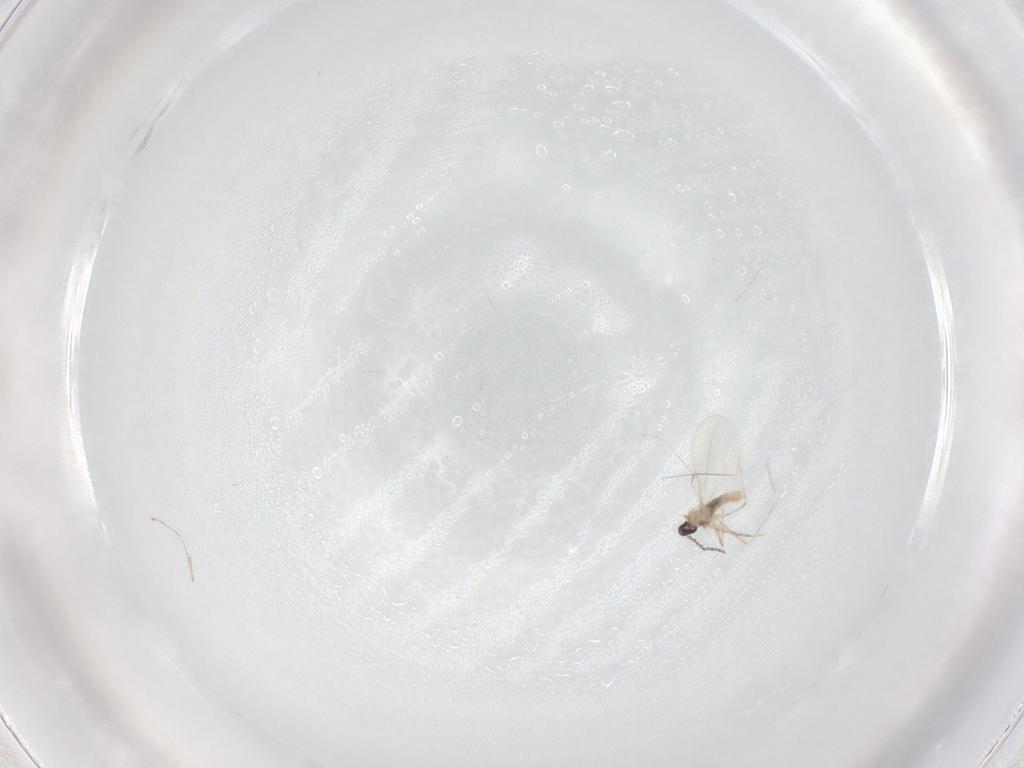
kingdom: Animalia
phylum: Arthropoda
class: Insecta
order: Diptera
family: Cecidomyiidae
